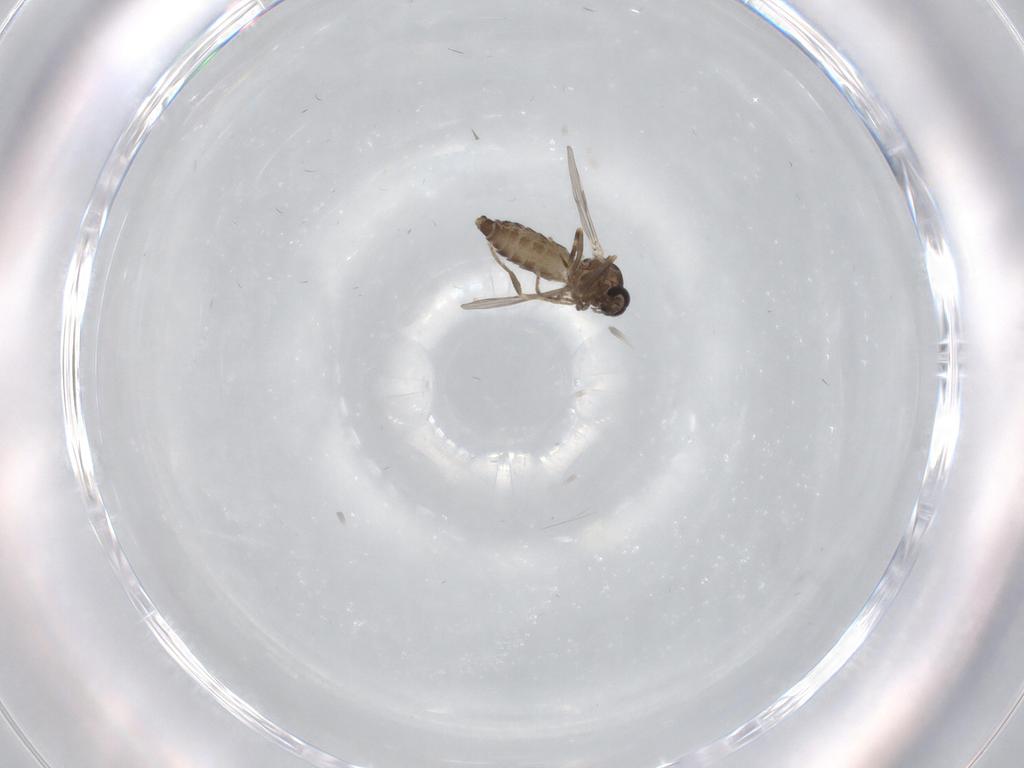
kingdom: Animalia
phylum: Arthropoda
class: Insecta
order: Diptera
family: Ceratopogonidae
